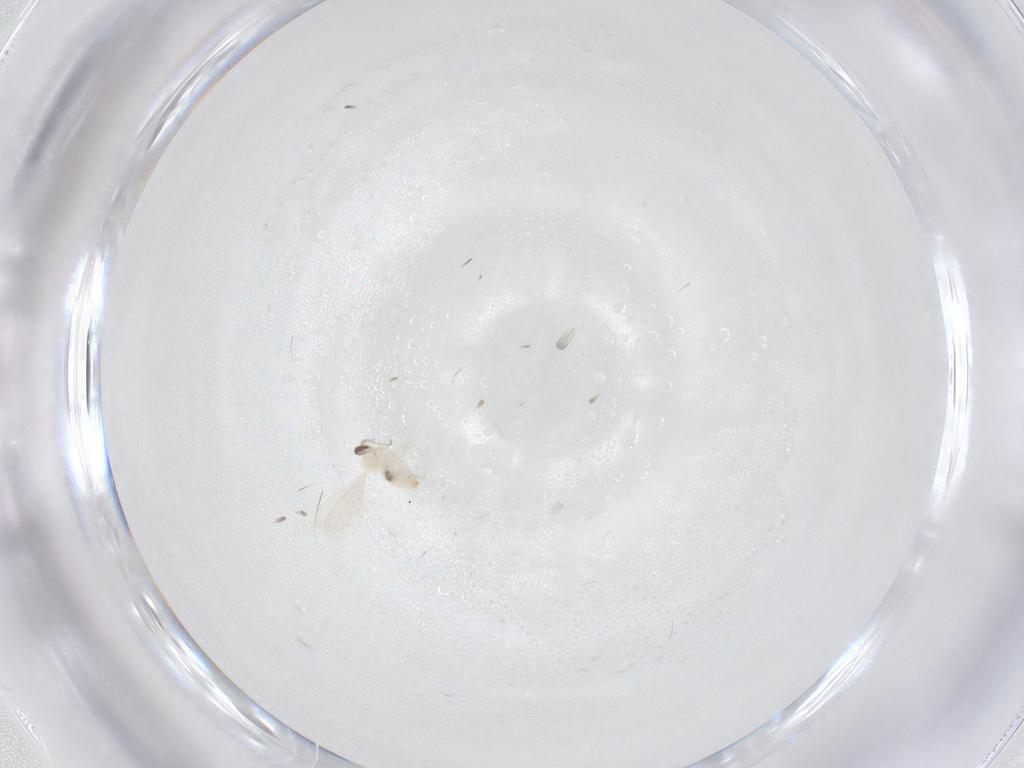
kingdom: Animalia
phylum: Arthropoda
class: Insecta
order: Diptera
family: Cecidomyiidae
